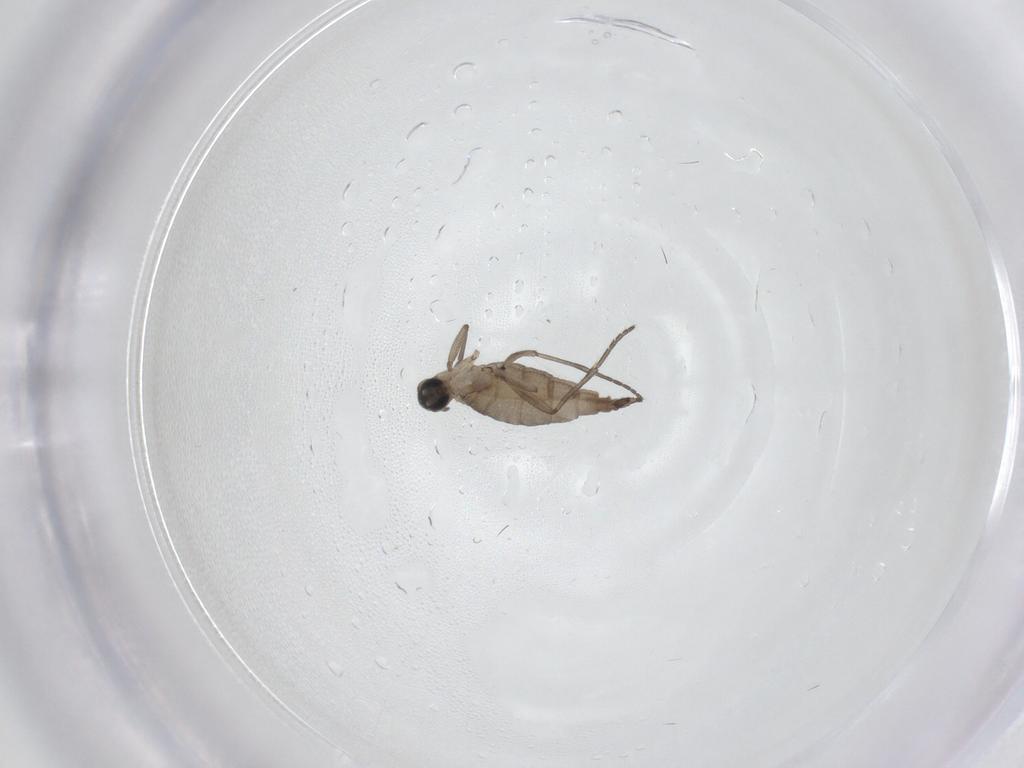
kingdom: Animalia
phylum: Arthropoda
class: Insecta
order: Diptera
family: Sciaridae
